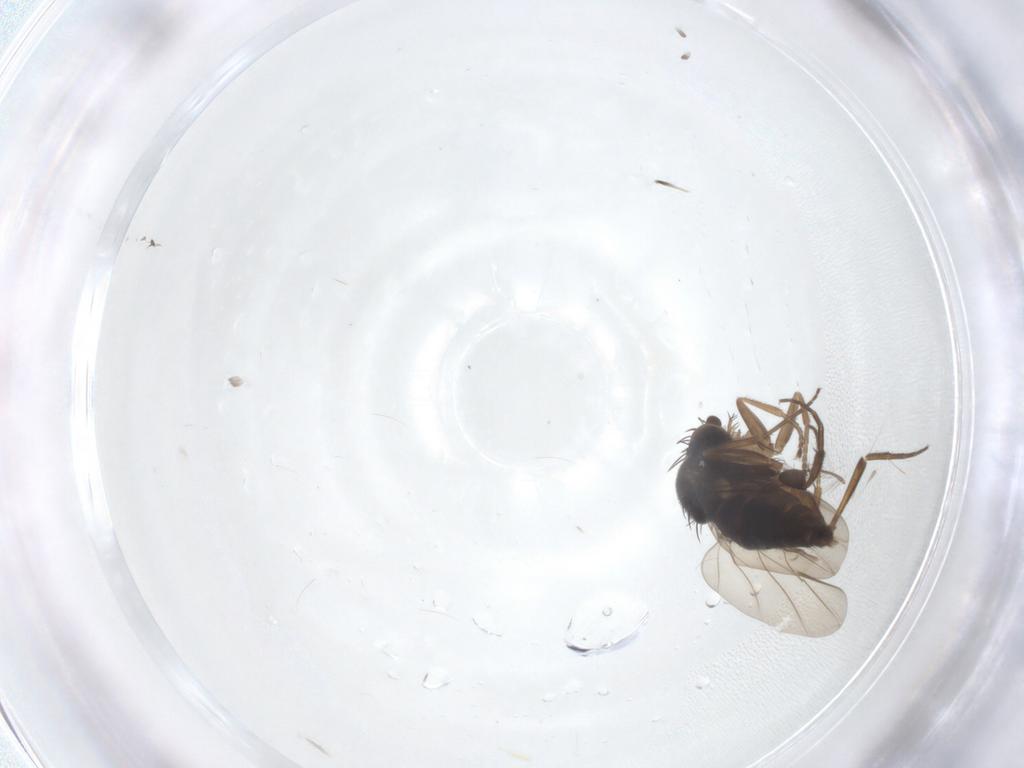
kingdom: Animalia
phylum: Arthropoda
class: Insecta
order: Diptera
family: Phoridae
